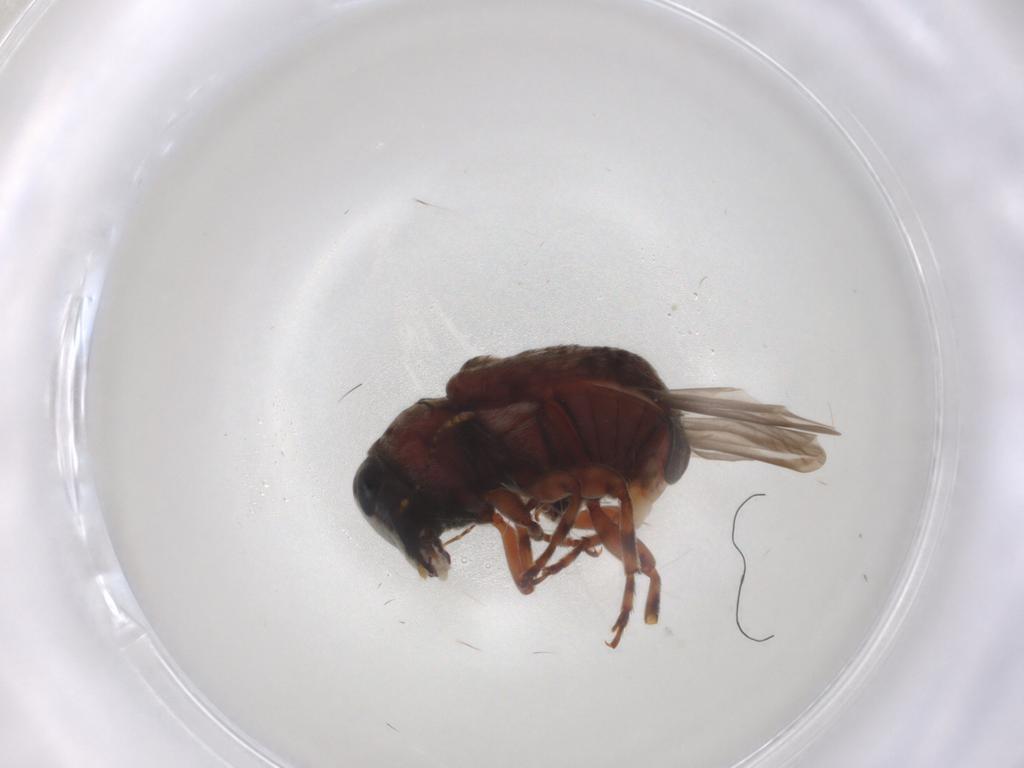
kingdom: Animalia
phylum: Arthropoda
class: Insecta
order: Coleoptera
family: Anthribidae
